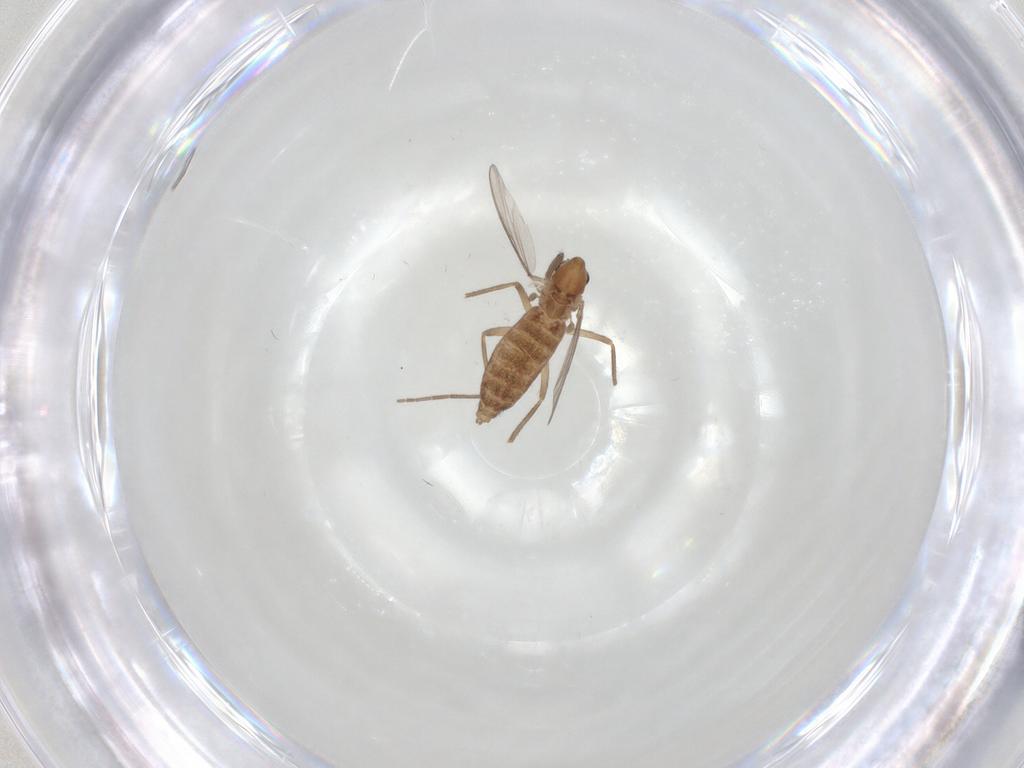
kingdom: Animalia
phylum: Arthropoda
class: Insecta
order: Diptera
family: Chironomidae
